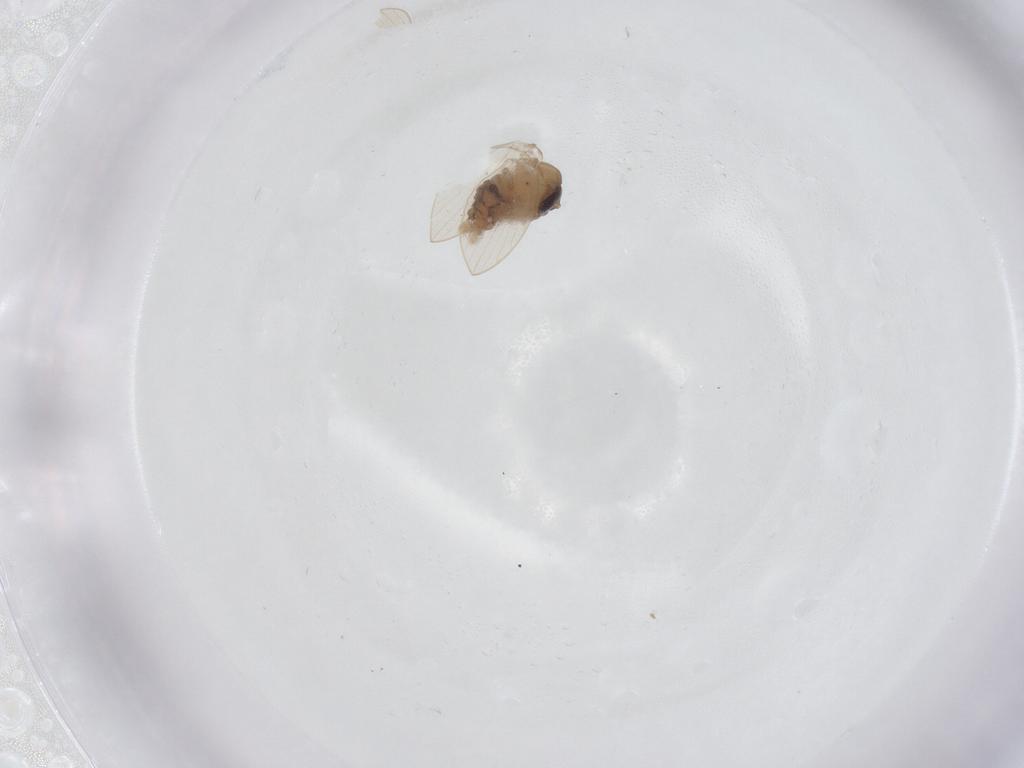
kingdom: Animalia
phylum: Arthropoda
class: Insecta
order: Diptera
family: Psychodidae
